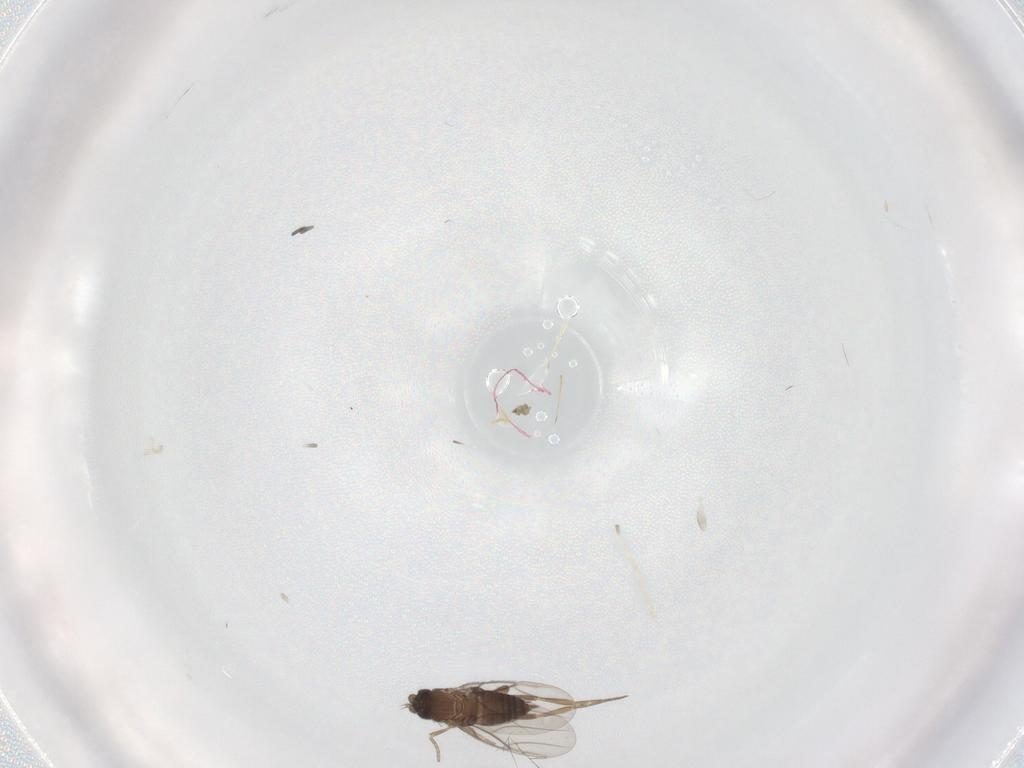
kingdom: Animalia
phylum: Arthropoda
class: Insecta
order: Diptera
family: Phoridae
